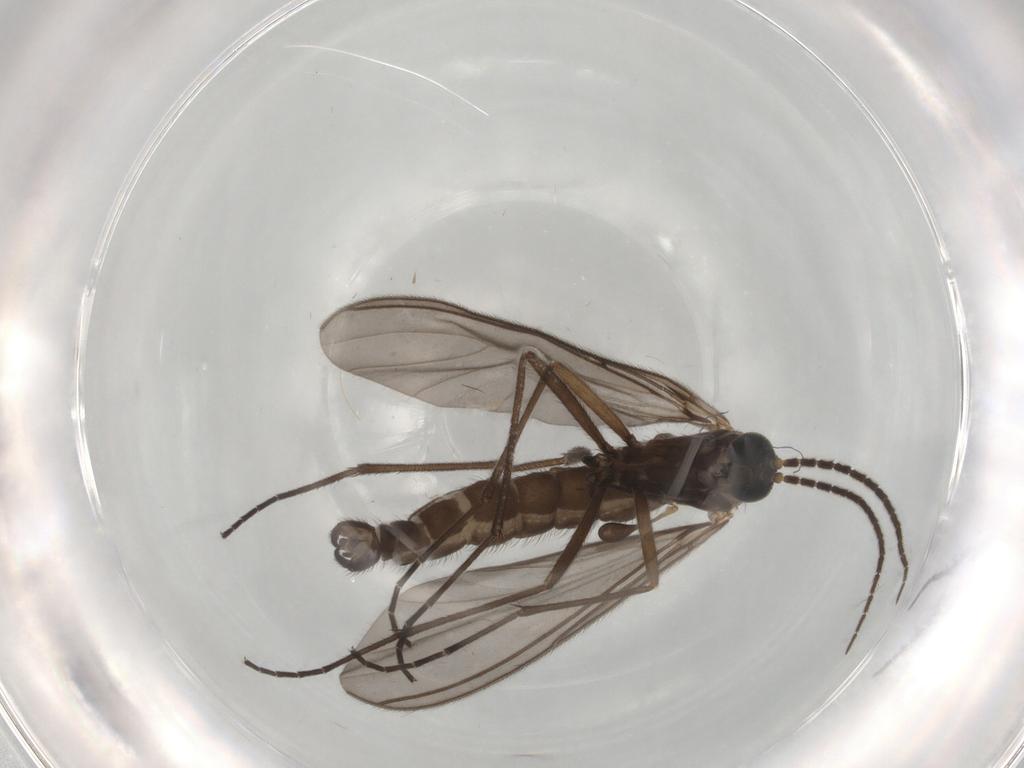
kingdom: Animalia
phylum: Arthropoda
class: Insecta
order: Diptera
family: Sciaridae
